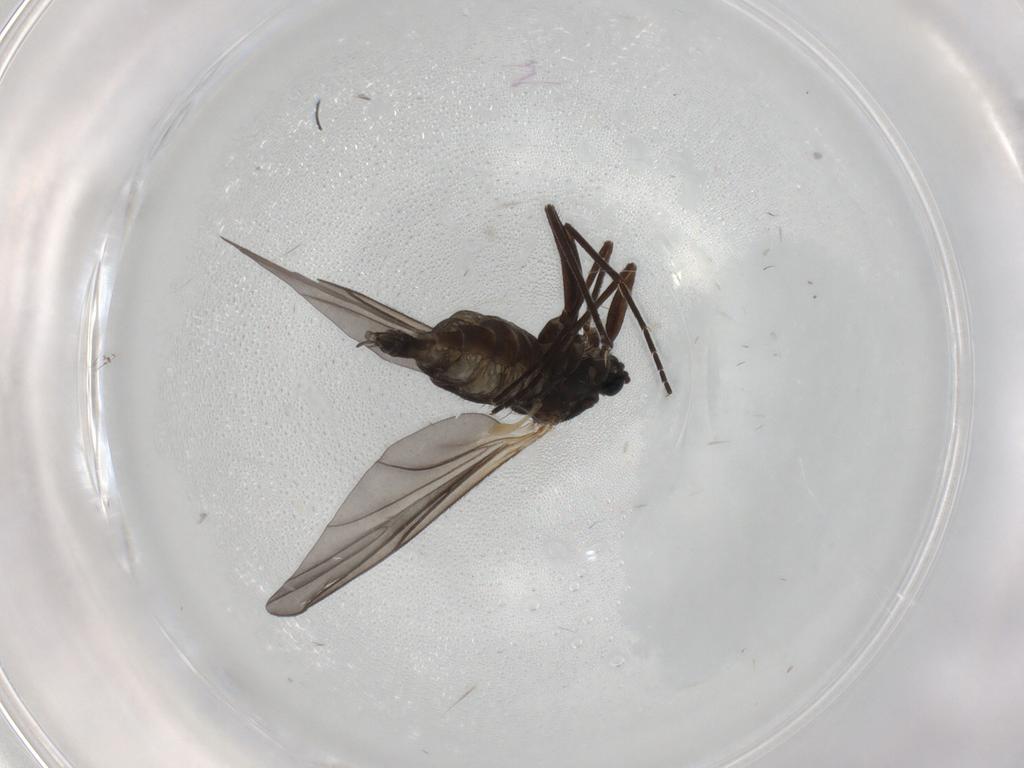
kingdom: Animalia
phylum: Arthropoda
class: Insecta
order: Diptera
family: Sciaridae
